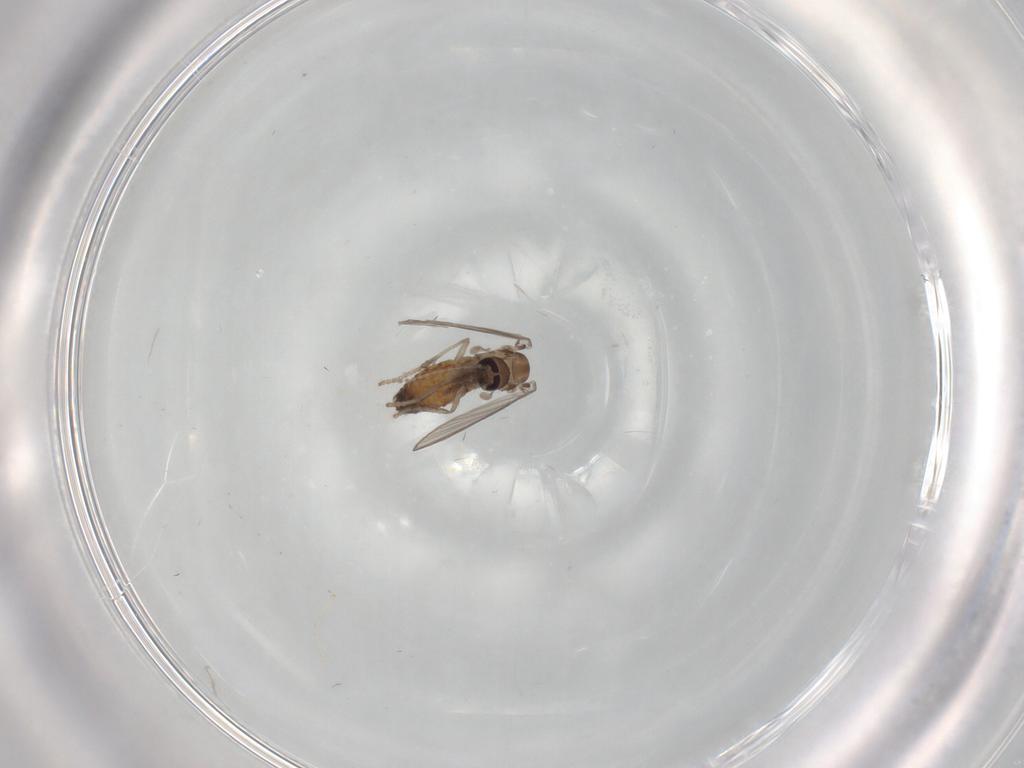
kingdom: Animalia
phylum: Arthropoda
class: Insecta
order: Diptera
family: Psychodidae
